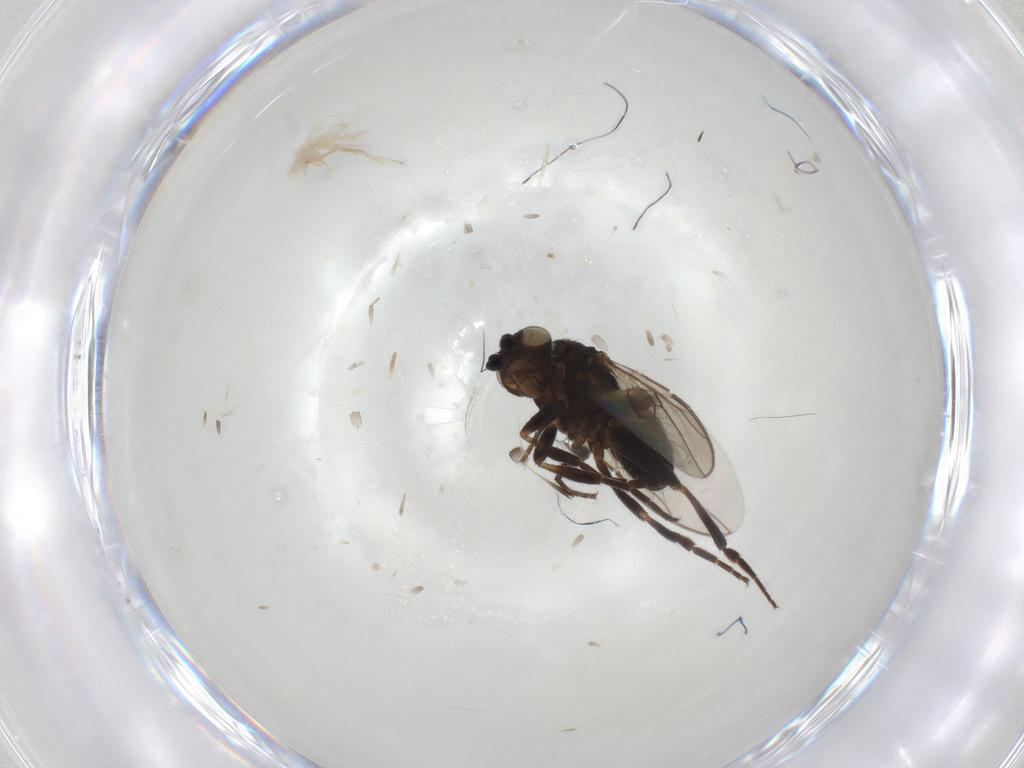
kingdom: Animalia
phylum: Arthropoda
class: Insecta
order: Diptera
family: Sphaeroceridae
